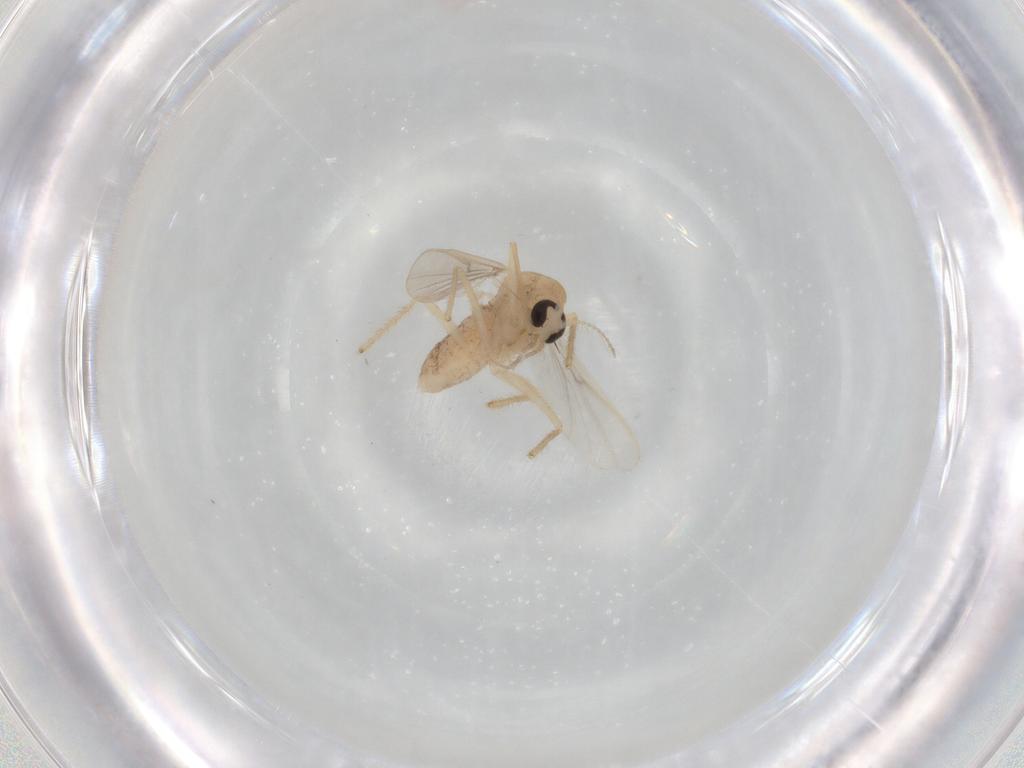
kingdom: Animalia
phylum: Arthropoda
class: Insecta
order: Diptera
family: Chironomidae
